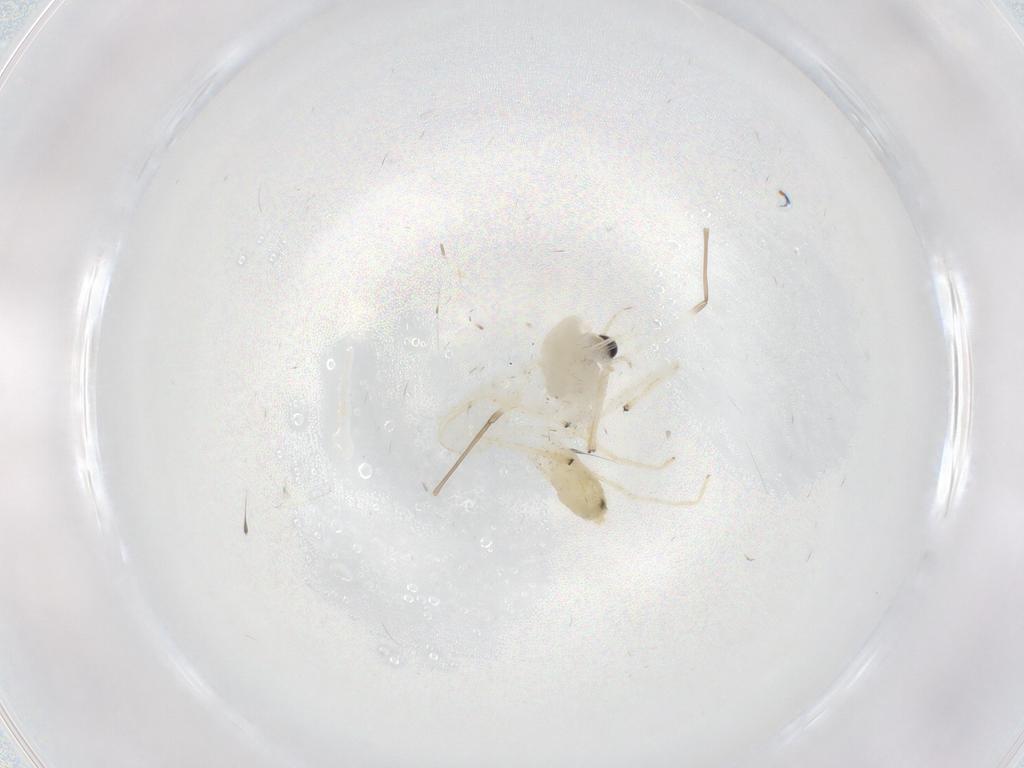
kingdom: Animalia
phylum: Arthropoda
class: Insecta
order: Diptera
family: Chironomidae
